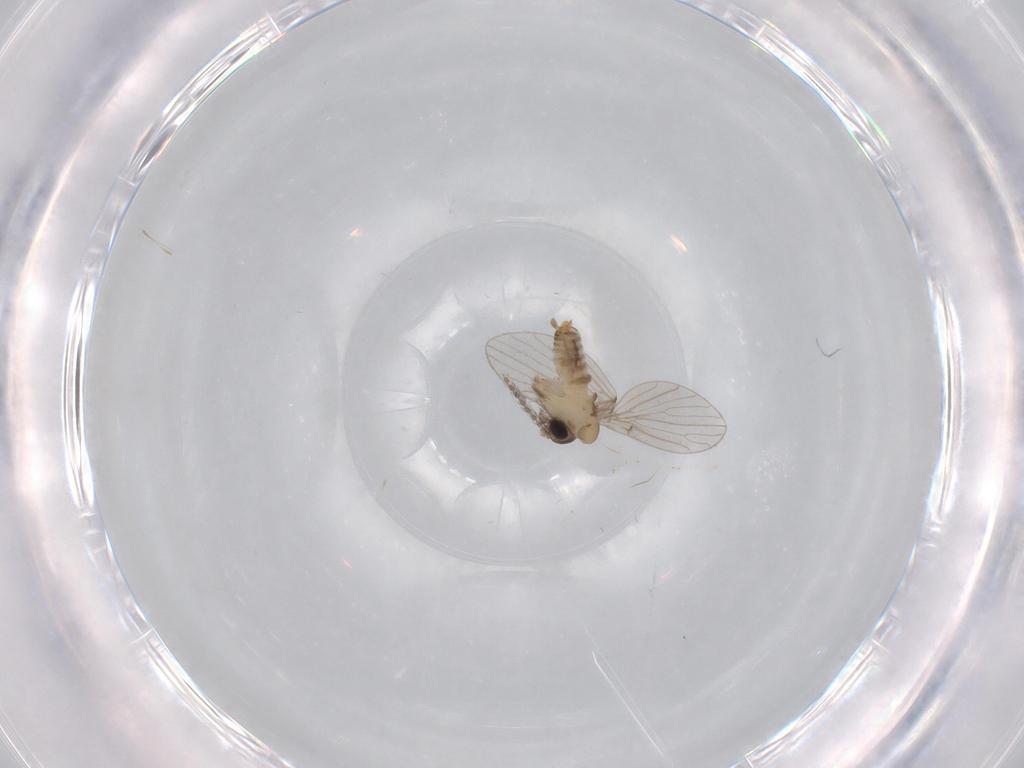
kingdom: Animalia
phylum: Arthropoda
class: Insecta
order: Diptera
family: Psychodidae
